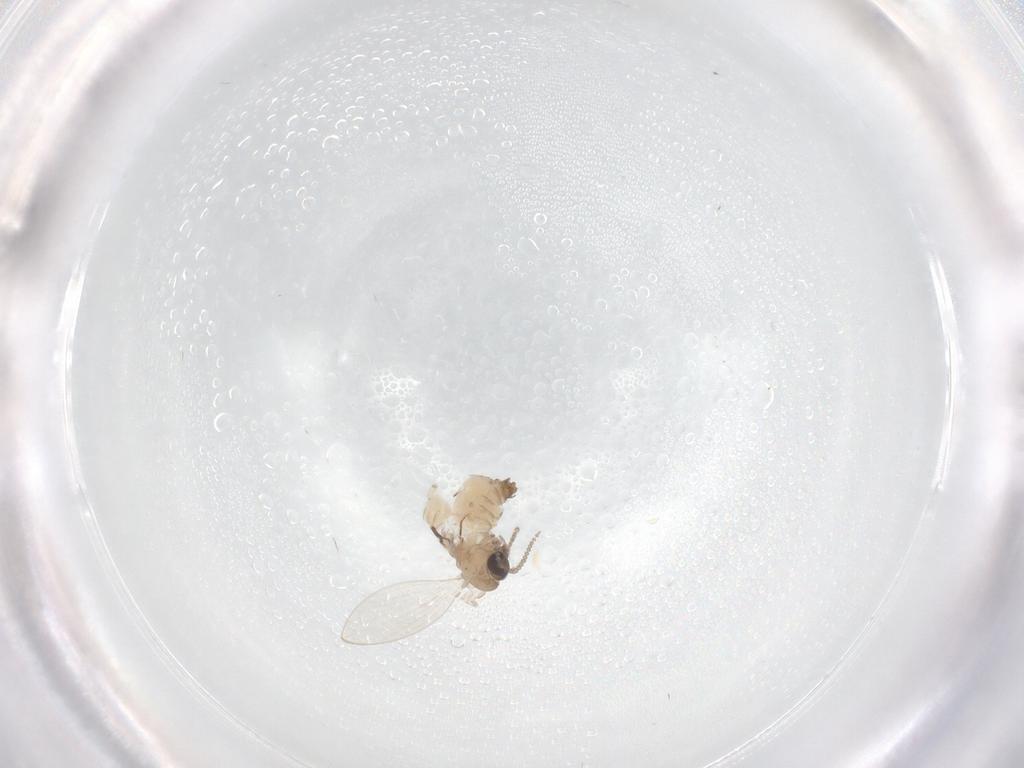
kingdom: Animalia
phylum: Arthropoda
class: Insecta
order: Diptera
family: Psychodidae
